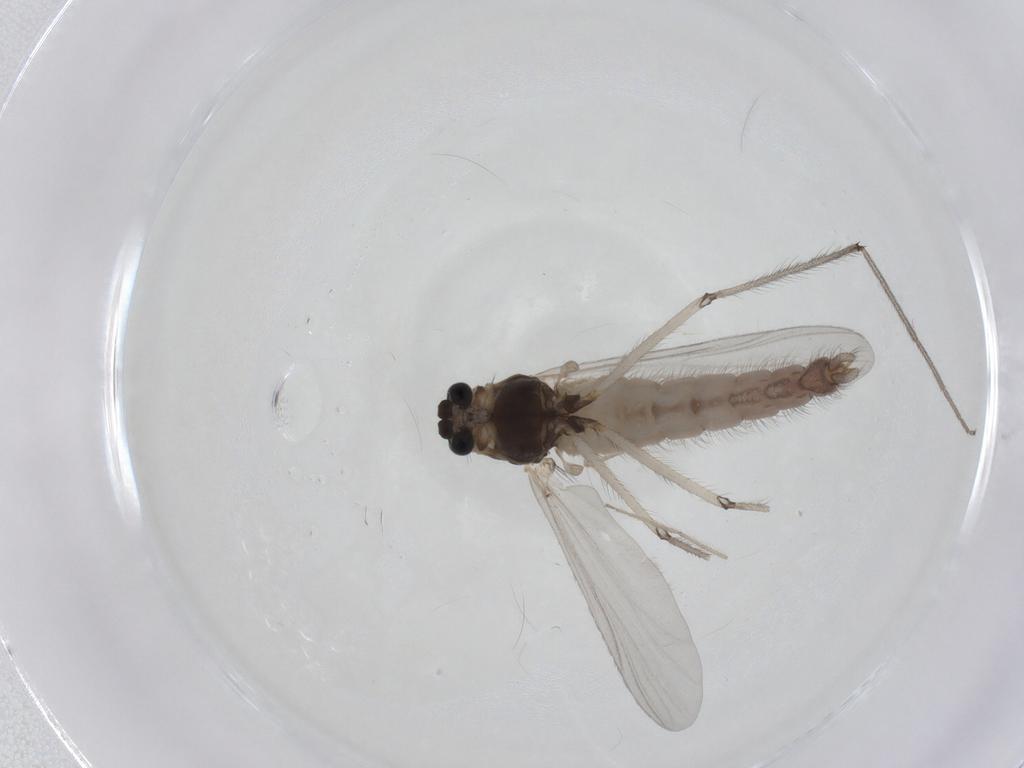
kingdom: Animalia
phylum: Arthropoda
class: Insecta
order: Diptera
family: Chironomidae
